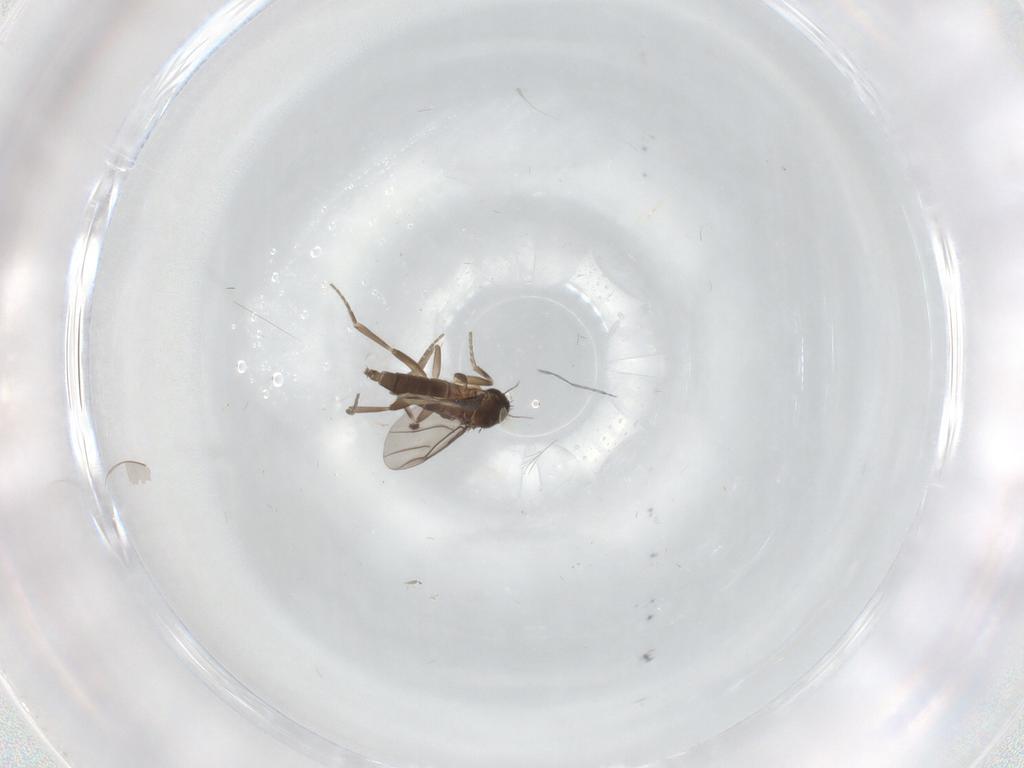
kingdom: Animalia
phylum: Arthropoda
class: Insecta
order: Diptera
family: Cecidomyiidae
